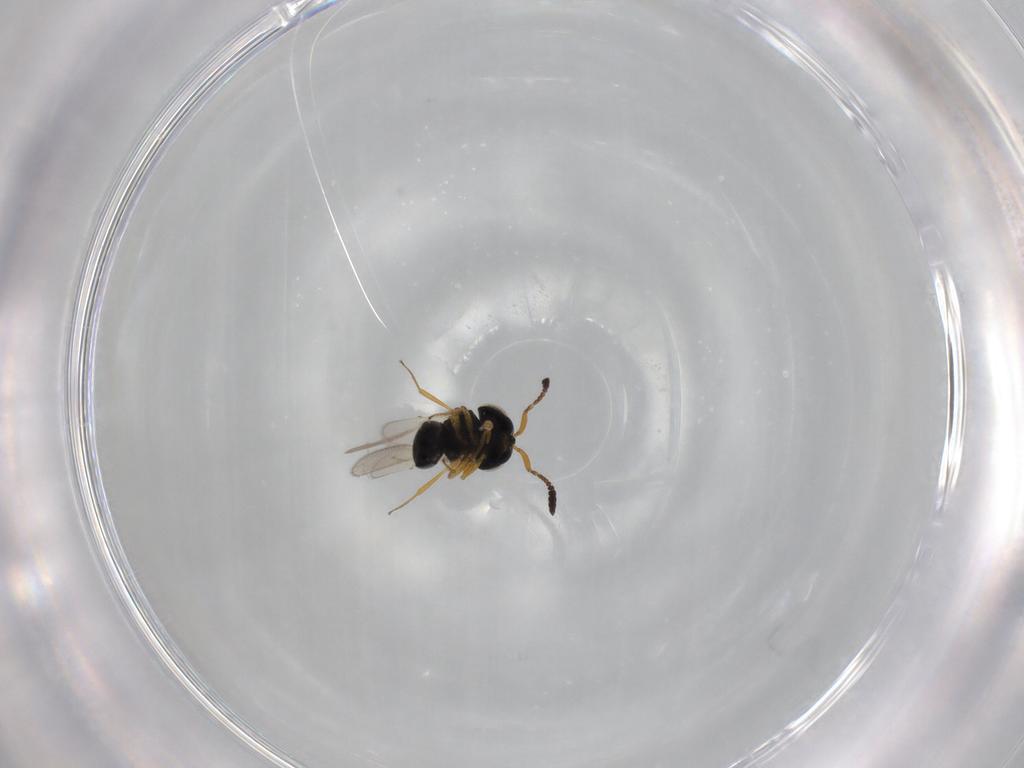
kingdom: Animalia
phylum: Arthropoda
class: Insecta
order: Hymenoptera
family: Scelionidae
